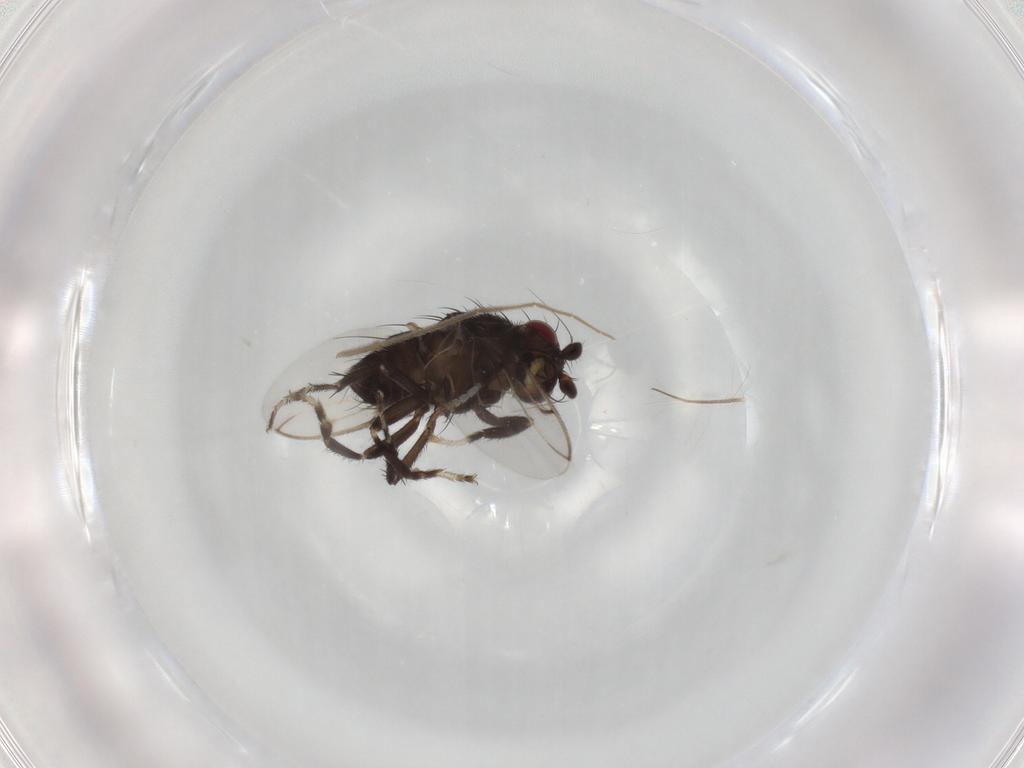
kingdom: Animalia
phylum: Arthropoda
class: Insecta
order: Diptera
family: Sphaeroceridae
